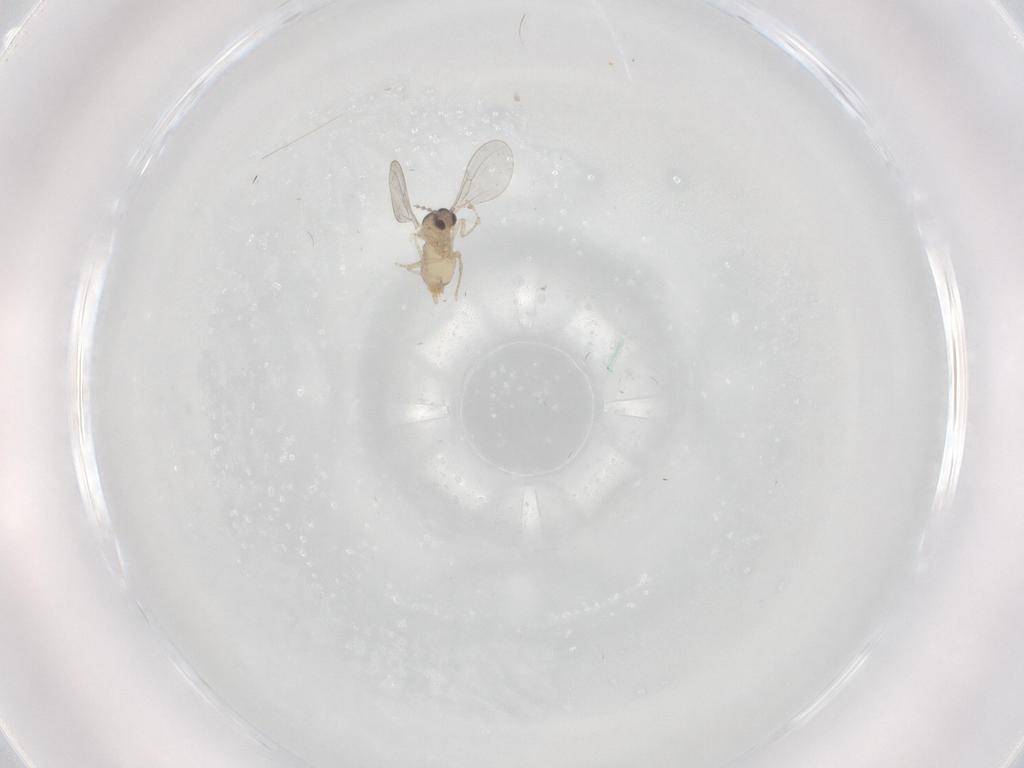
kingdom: Animalia
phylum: Arthropoda
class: Insecta
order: Diptera
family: Cecidomyiidae
